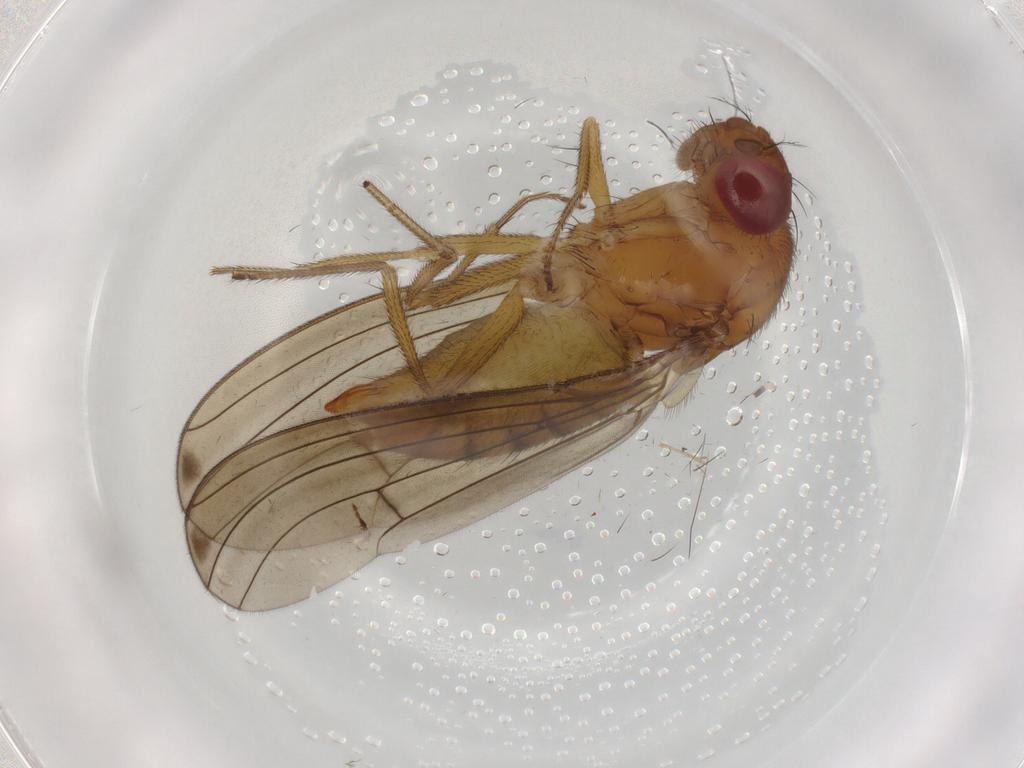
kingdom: Animalia
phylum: Arthropoda
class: Insecta
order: Diptera
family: Drosophilidae
